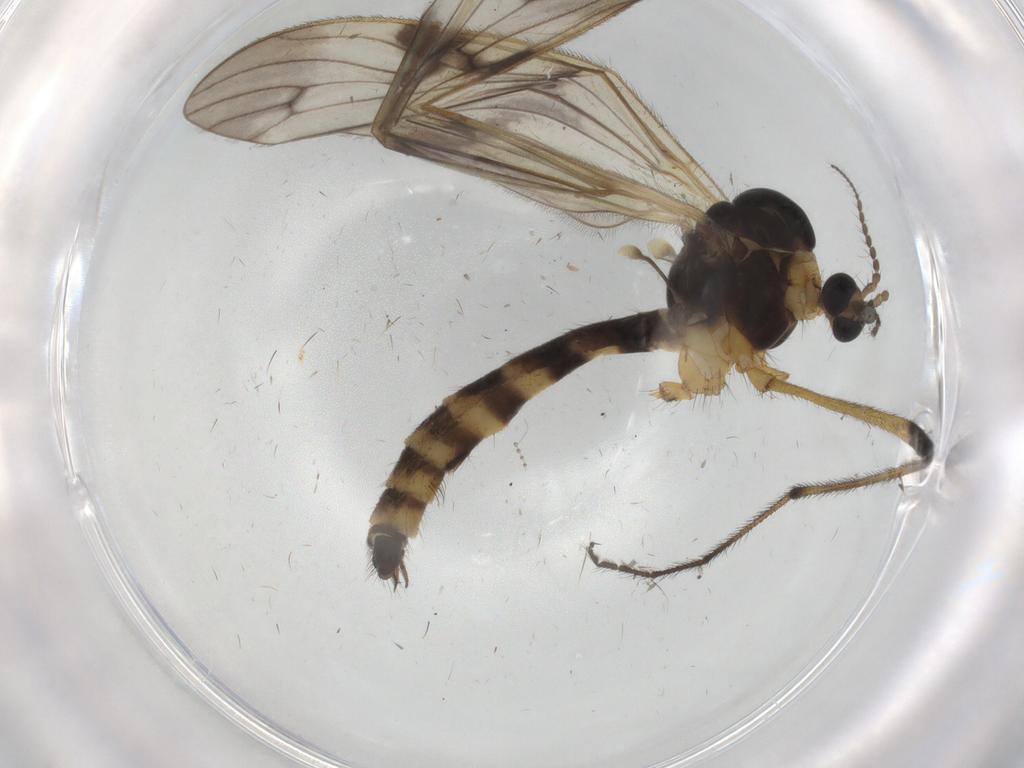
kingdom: Animalia
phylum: Arthropoda
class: Insecta
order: Diptera
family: Limoniidae
